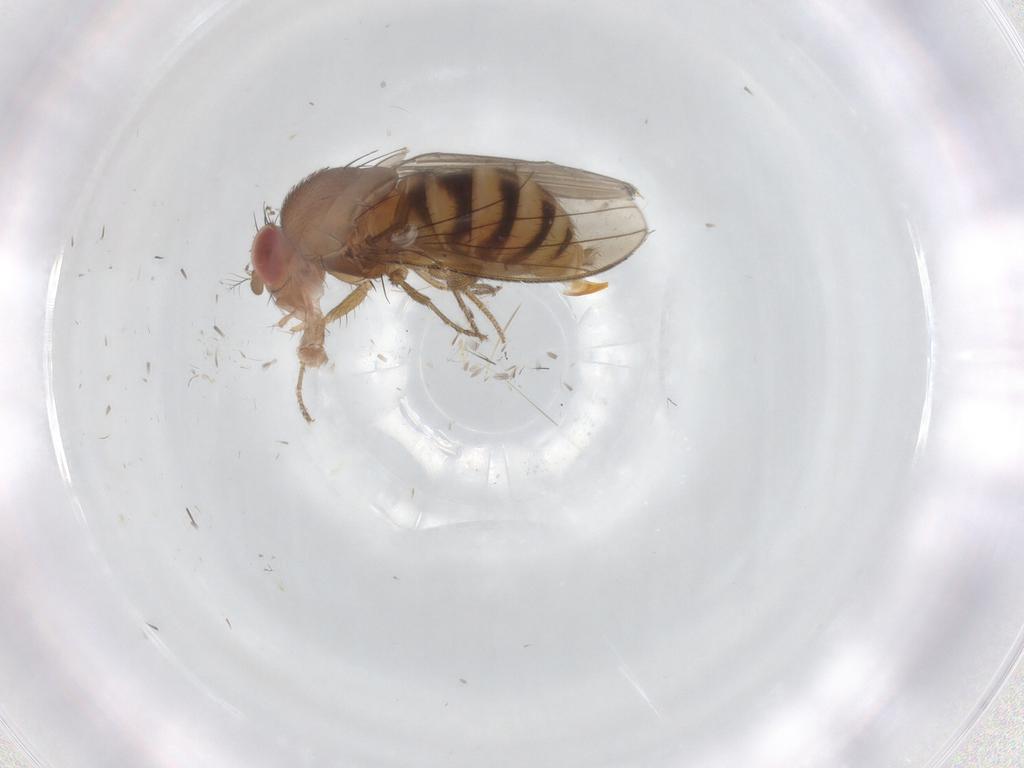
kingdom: Animalia
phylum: Arthropoda
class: Insecta
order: Diptera
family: Drosophilidae
